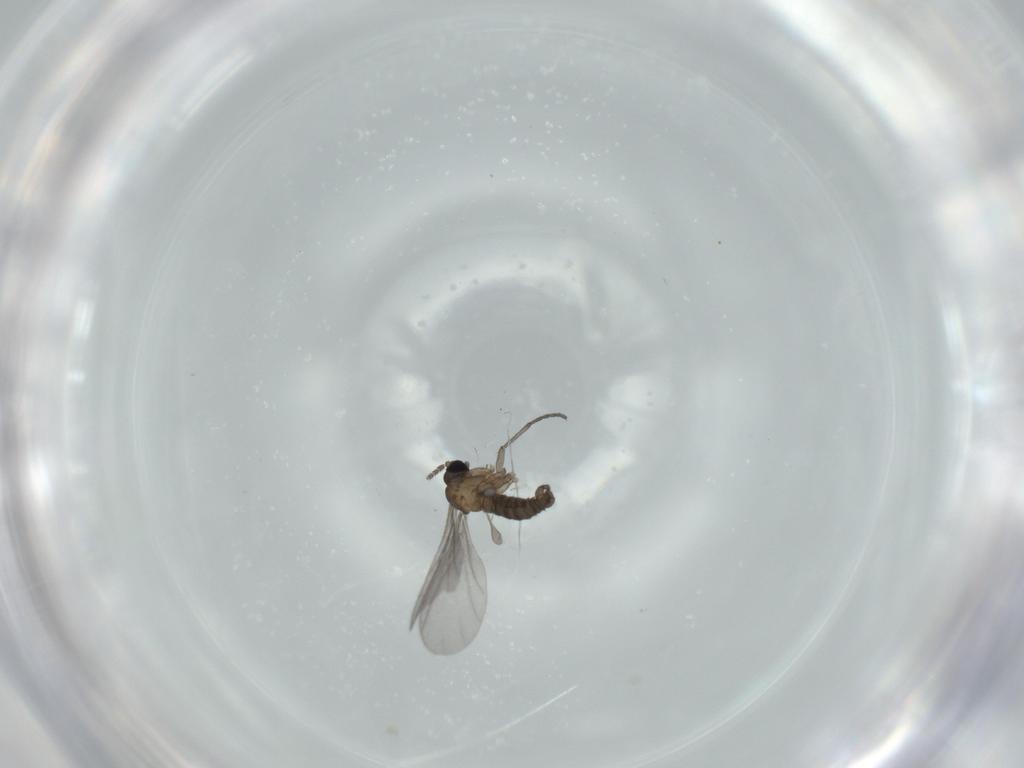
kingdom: Animalia
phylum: Arthropoda
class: Insecta
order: Diptera
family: Sciaridae
